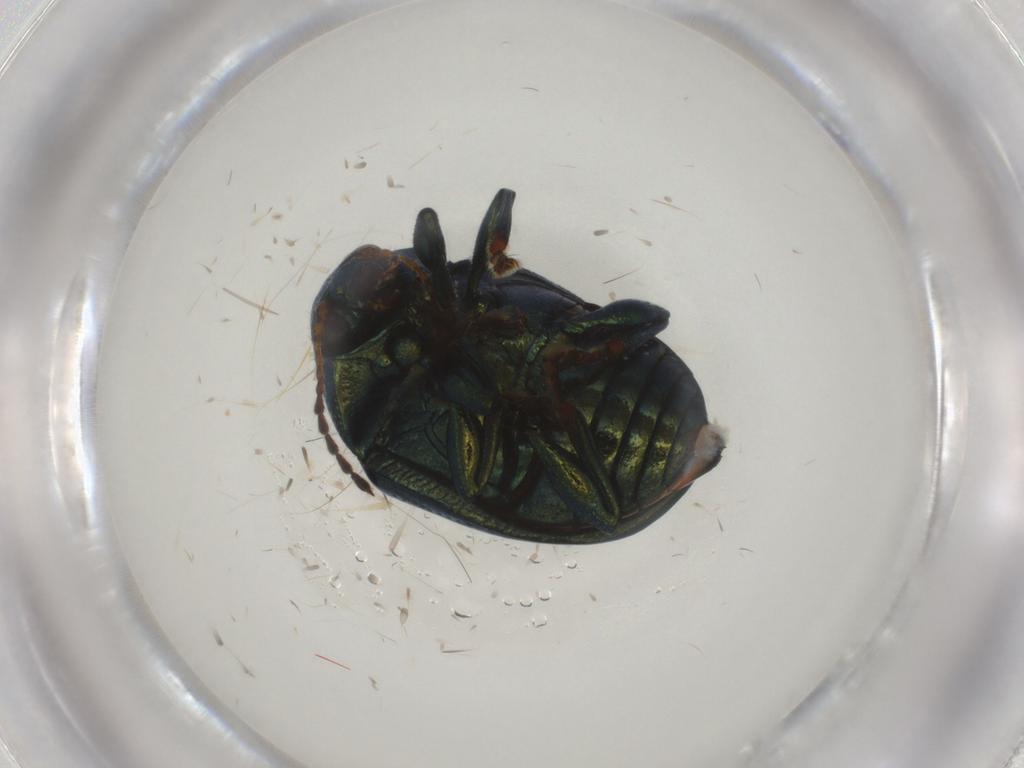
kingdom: Animalia
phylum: Arthropoda
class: Insecta
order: Coleoptera
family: Chrysomelidae
